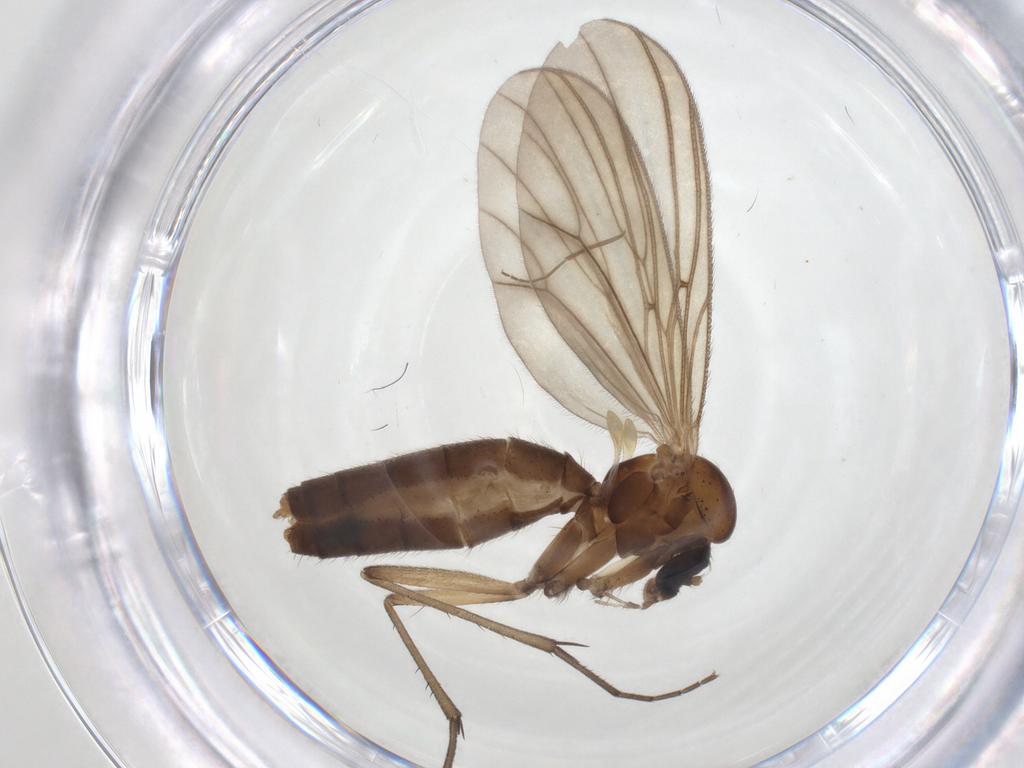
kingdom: Animalia
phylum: Arthropoda
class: Insecta
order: Diptera
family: Mycetophilidae
